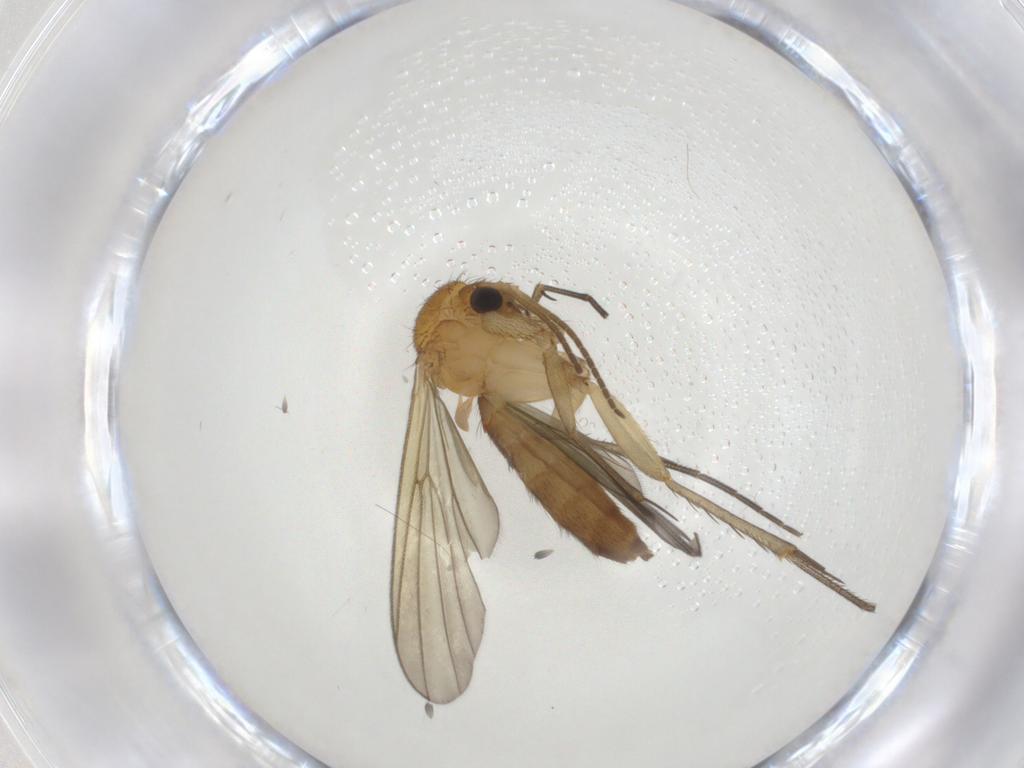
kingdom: Animalia
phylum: Arthropoda
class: Insecta
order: Diptera
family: Mycetophilidae
